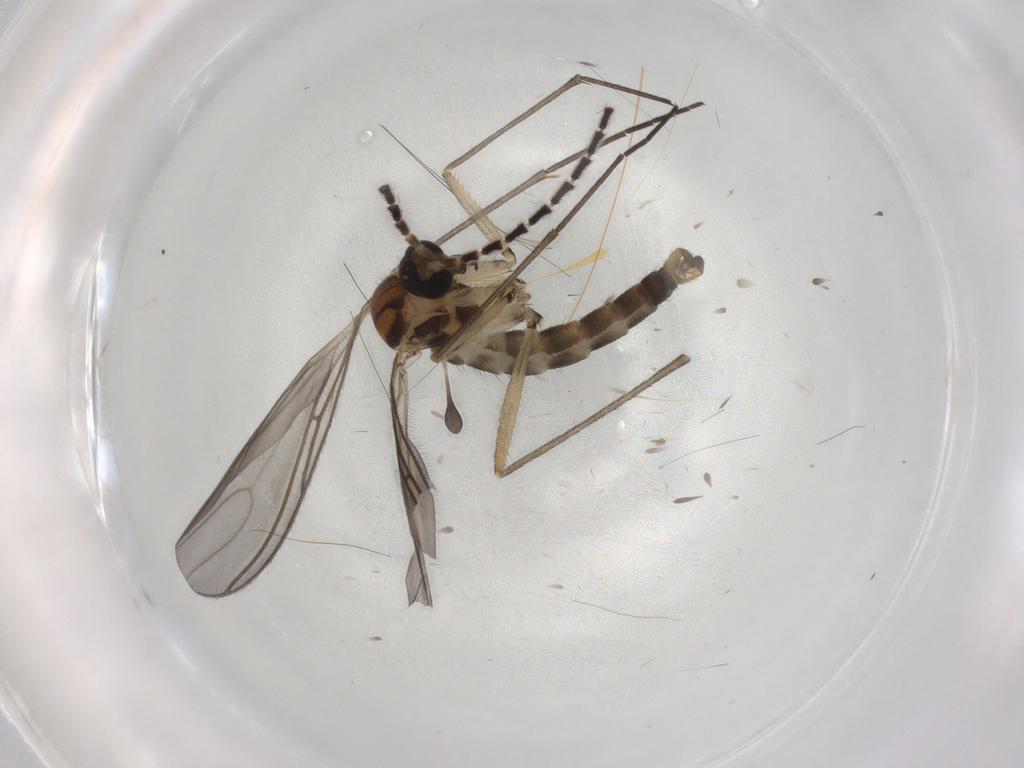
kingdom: Animalia
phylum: Arthropoda
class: Insecta
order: Diptera
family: Sciaridae
